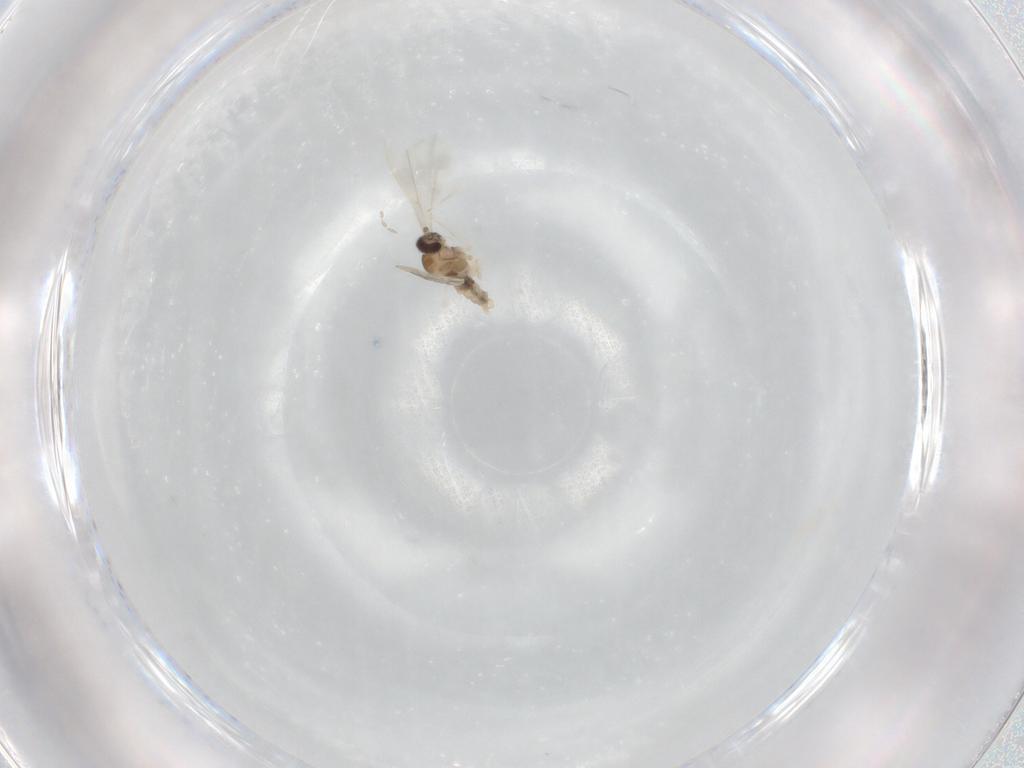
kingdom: Animalia
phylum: Arthropoda
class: Insecta
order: Diptera
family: Cecidomyiidae
